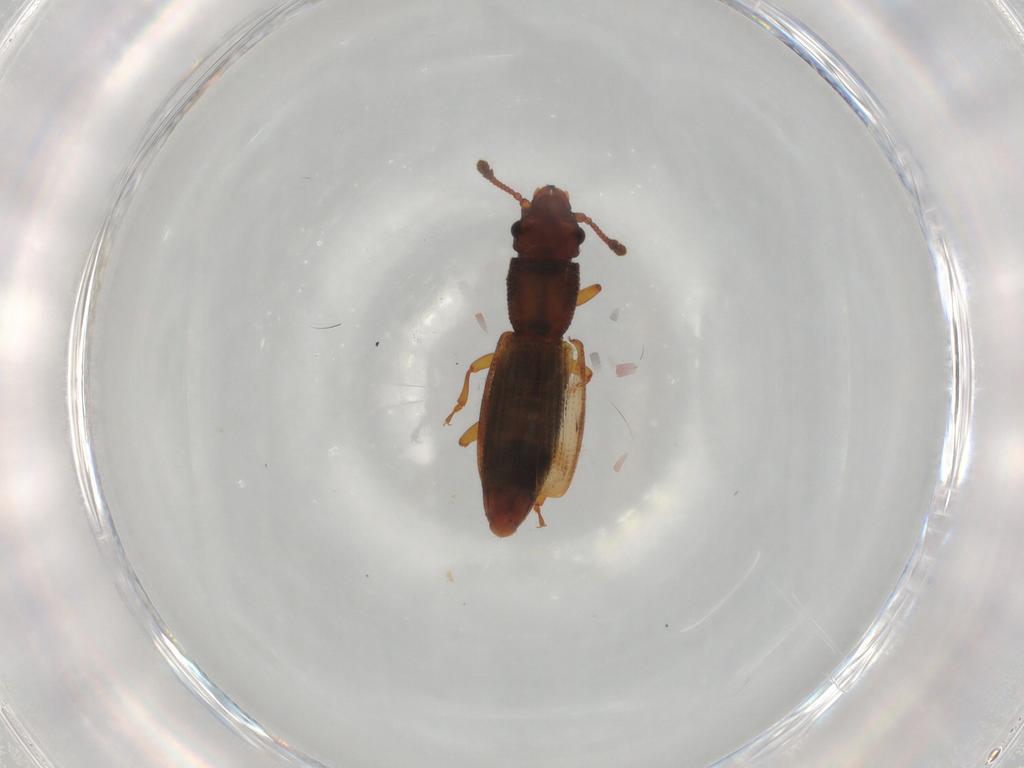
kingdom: Animalia
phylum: Arthropoda
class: Insecta
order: Coleoptera
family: Monotomidae
